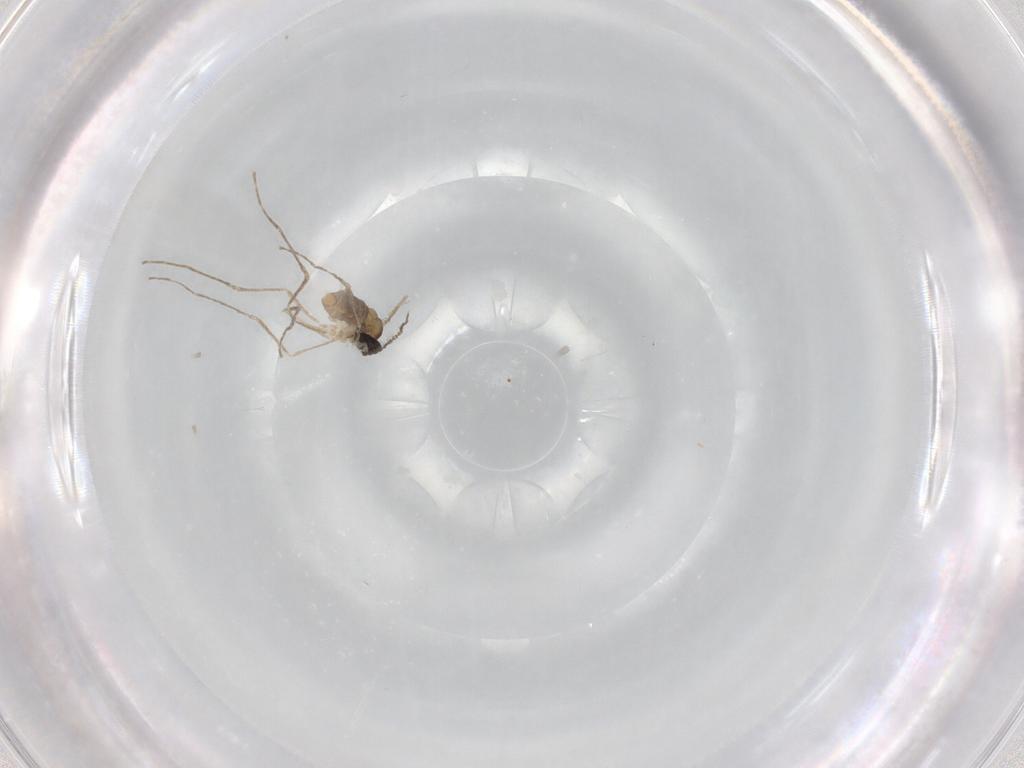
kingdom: Animalia
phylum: Arthropoda
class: Insecta
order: Diptera
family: Cecidomyiidae
